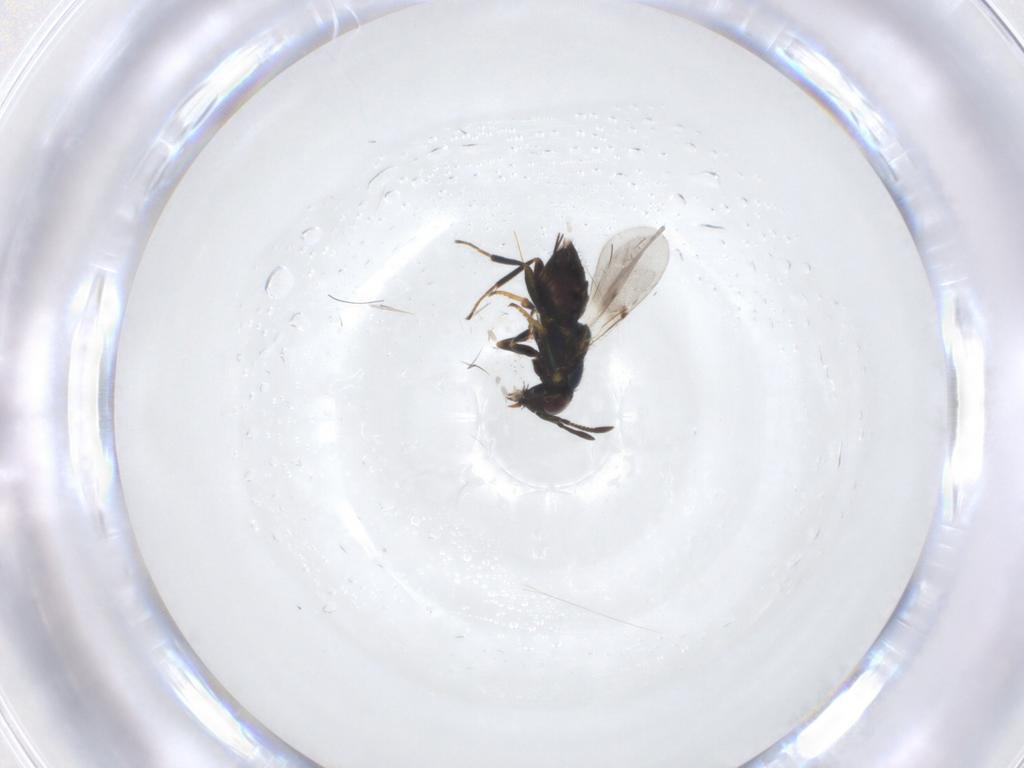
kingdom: Animalia
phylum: Arthropoda
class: Insecta
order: Hymenoptera
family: Encyrtidae
